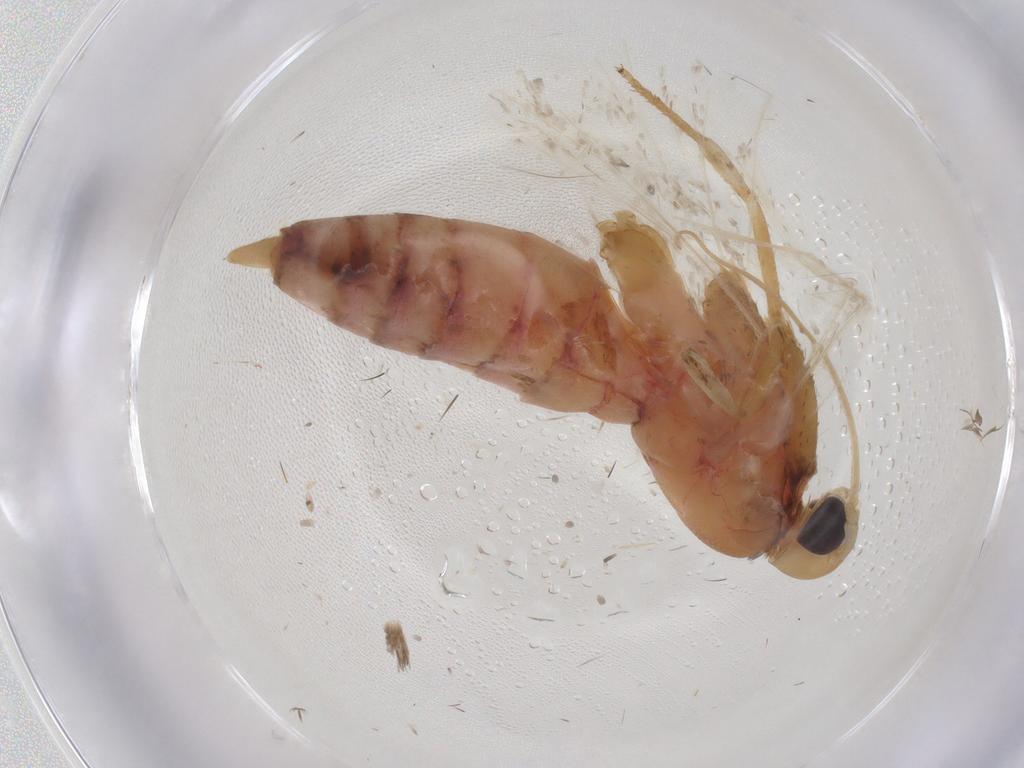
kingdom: Animalia
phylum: Arthropoda
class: Insecta
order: Lepidoptera
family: Autostichidae
